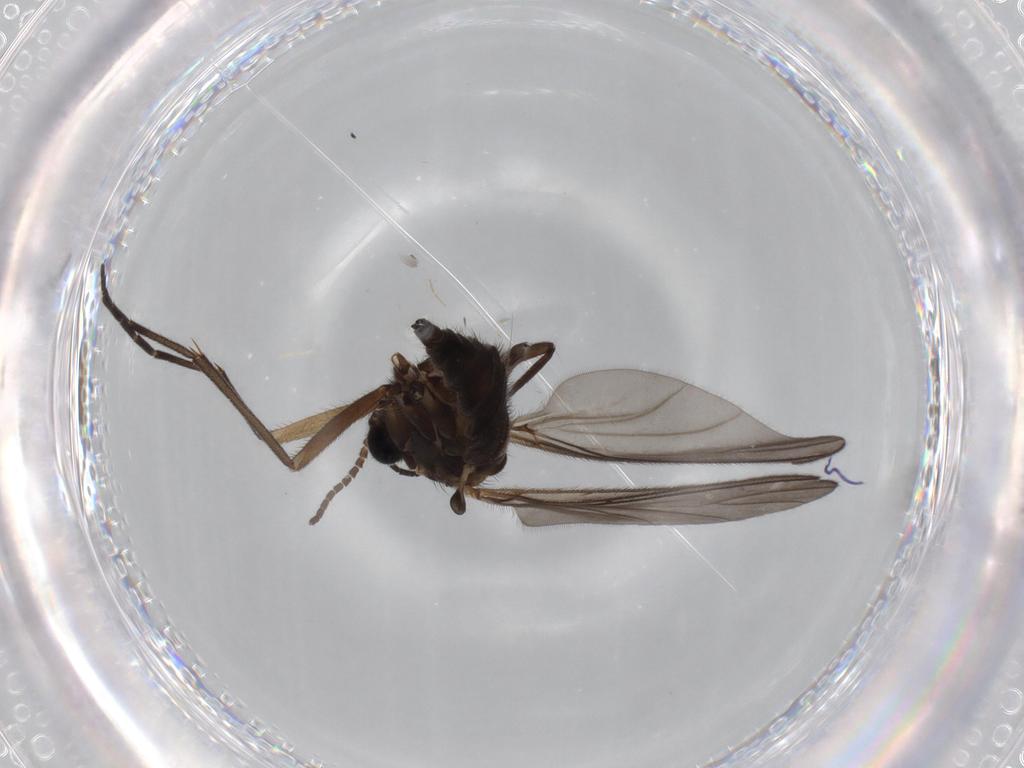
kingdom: Animalia
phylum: Arthropoda
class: Insecta
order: Diptera
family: Sciaridae
